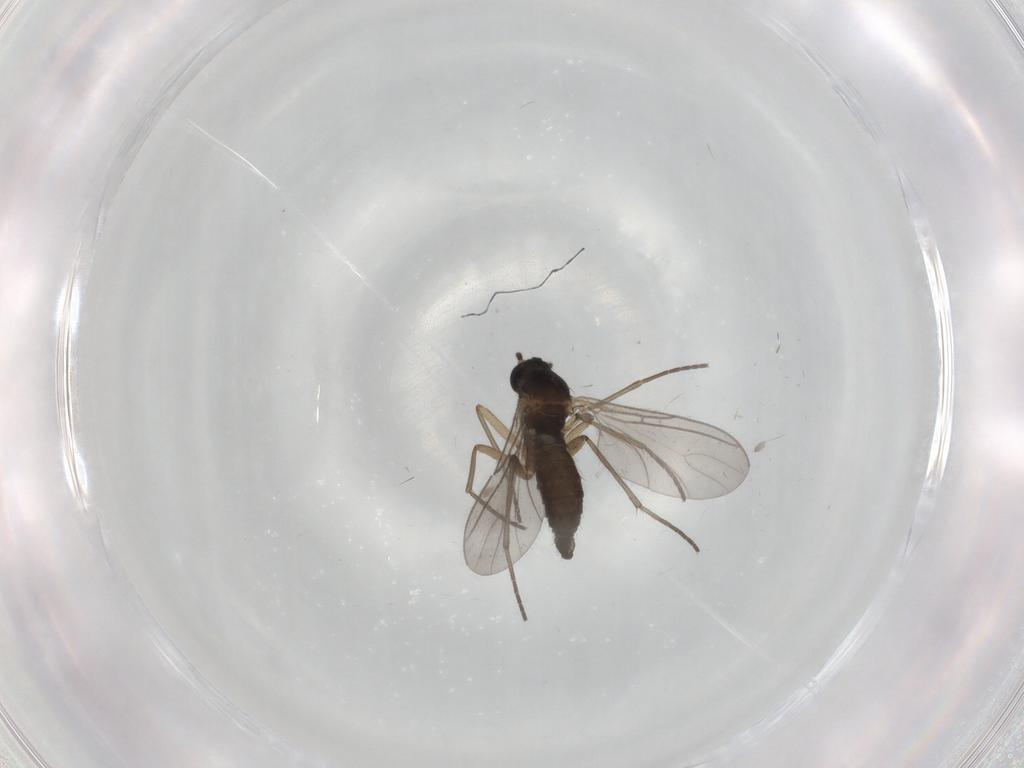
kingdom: Animalia
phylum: Arthropoda
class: Insecta
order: Diptera
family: Sciaridae
